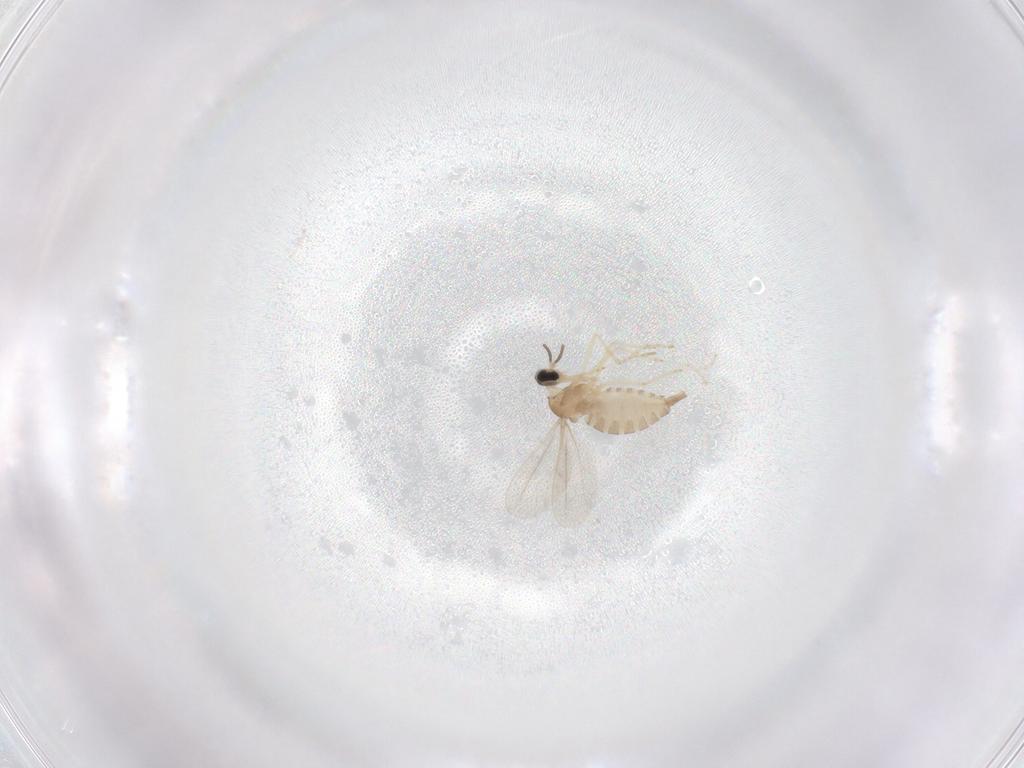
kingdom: Animalia
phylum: Arthropoda
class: Insecta
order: Diptera
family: Cecidomyiidae
